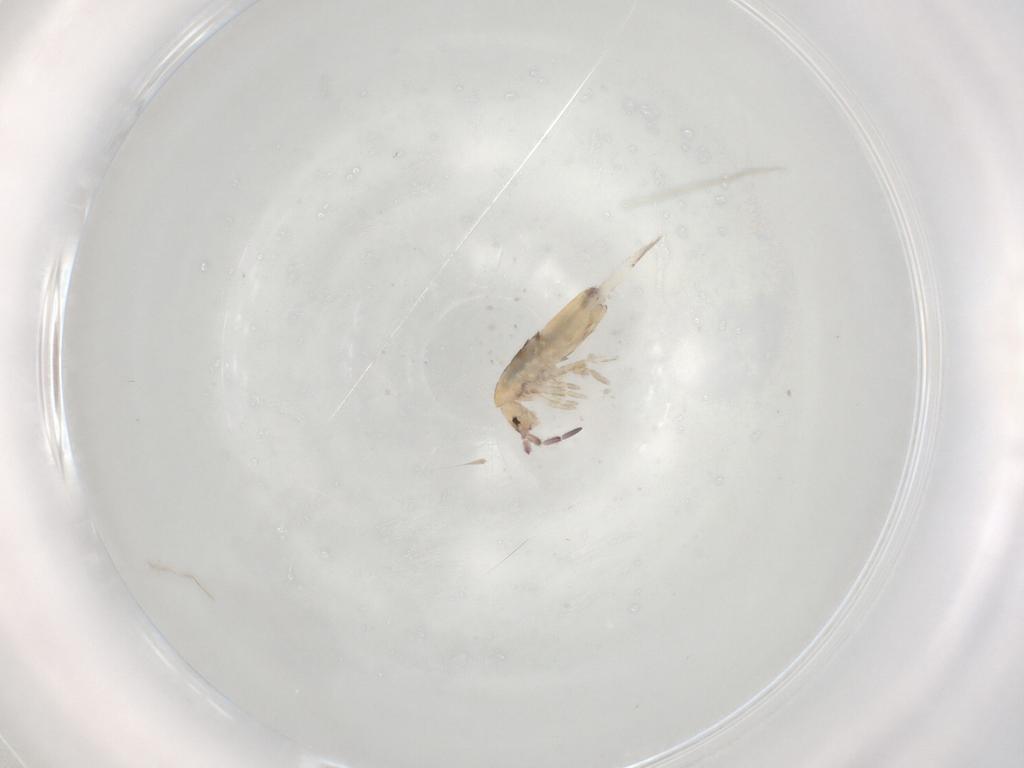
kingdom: Animalia
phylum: Arthropoda
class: Collembola
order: Entomobryomorpha
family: Entomobryidae
